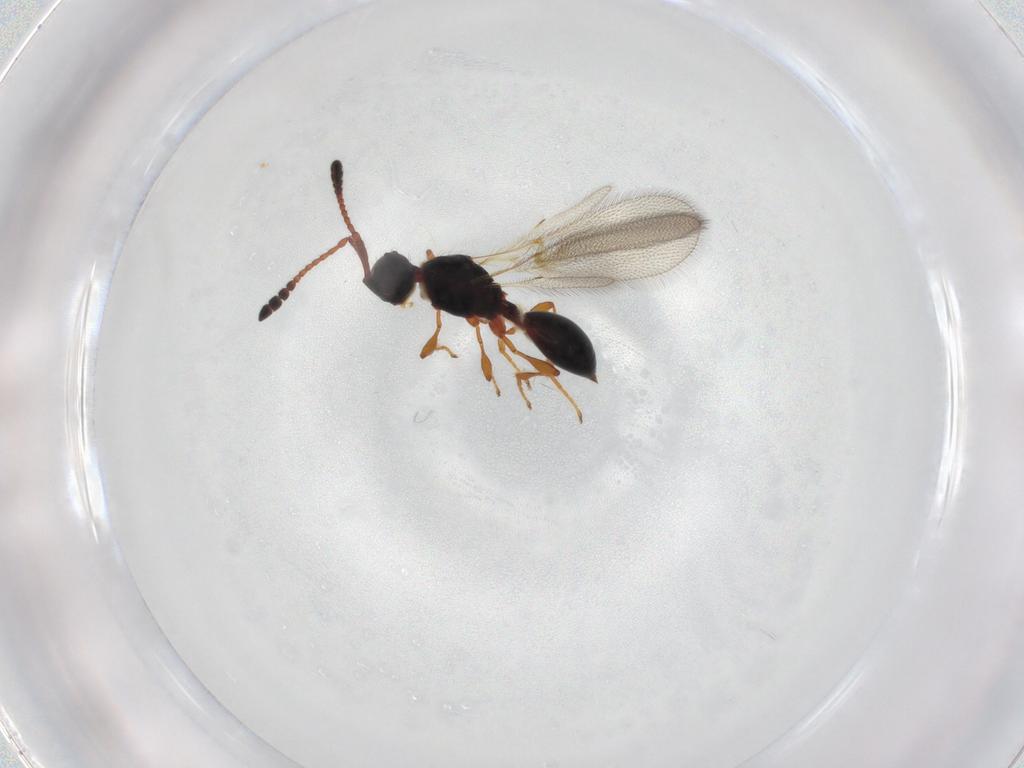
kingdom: Animalia
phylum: Arthropoda
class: Insecta
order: Hymenoptera
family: Diapriidae
